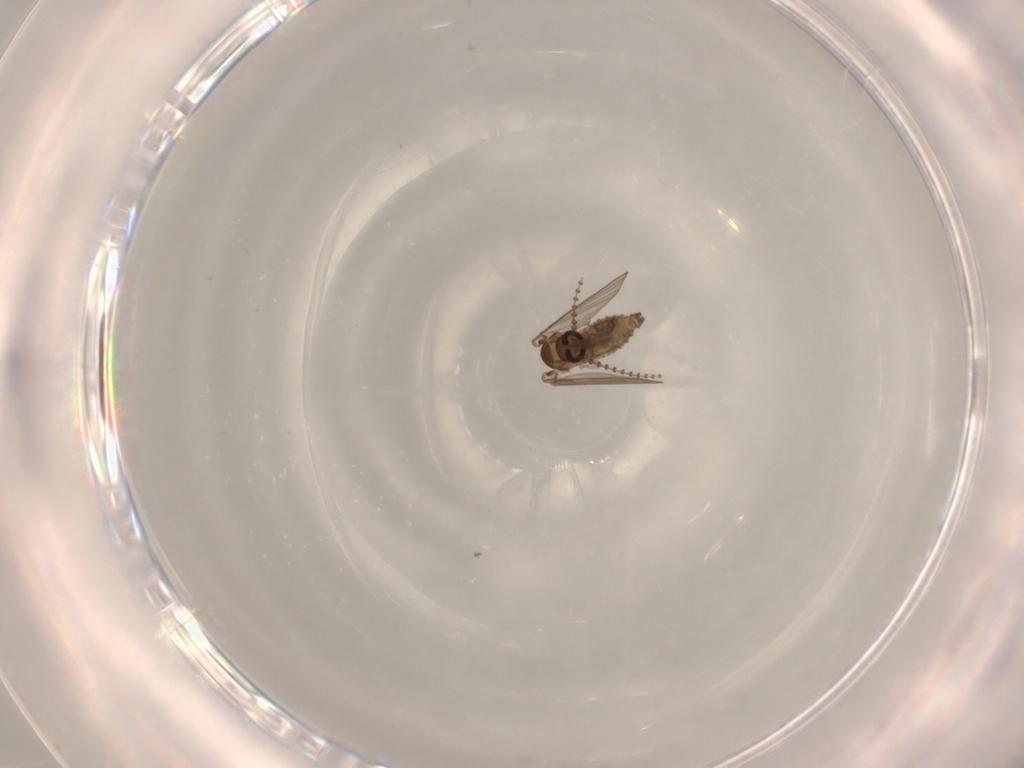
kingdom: Animalia
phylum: Arthropoda
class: Insecta
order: Diptera
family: Psychodidae
